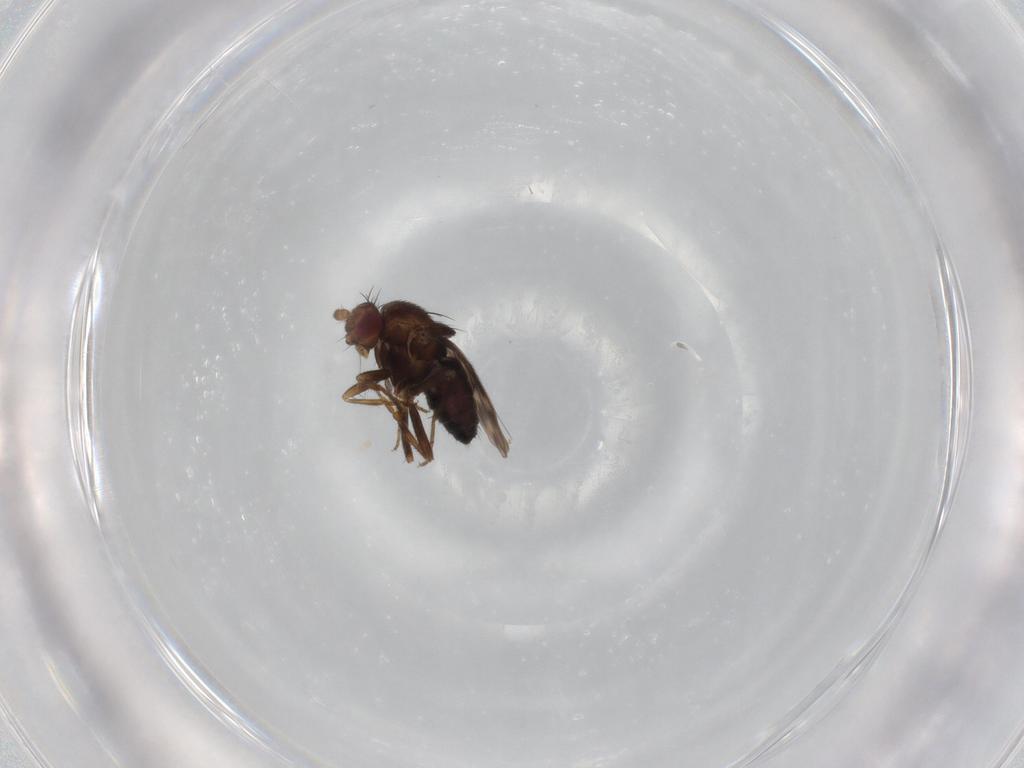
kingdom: Animalia
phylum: Arthropoda
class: Insecta
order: Diptera
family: Sphaeroceridae
